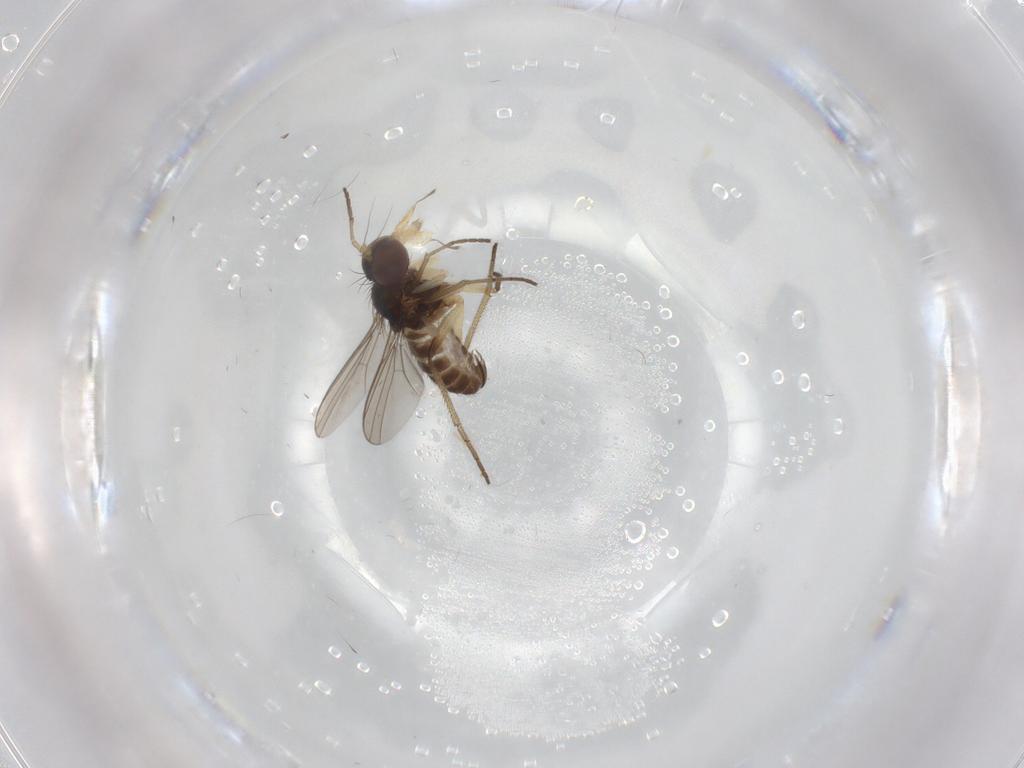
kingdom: Animalia
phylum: Arthropoda
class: Insecta
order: Diptera
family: Dolichopodidae
